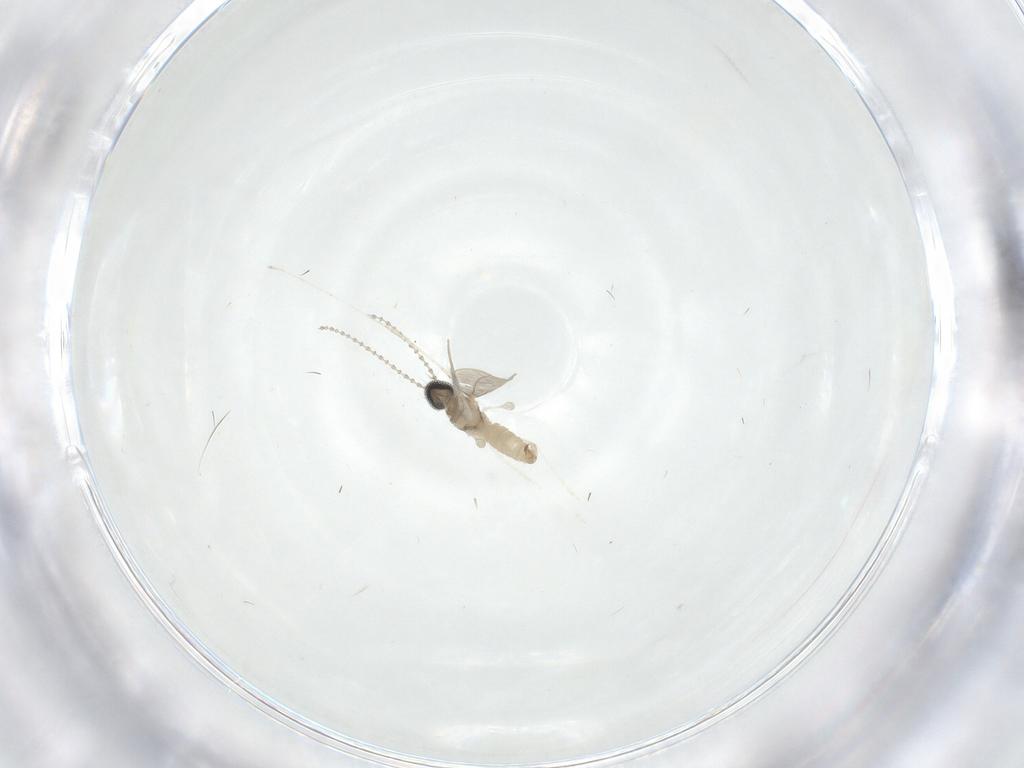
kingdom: Animalia
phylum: Arthropoda
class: Insecta
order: Diptera
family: Cecidomyiidae
